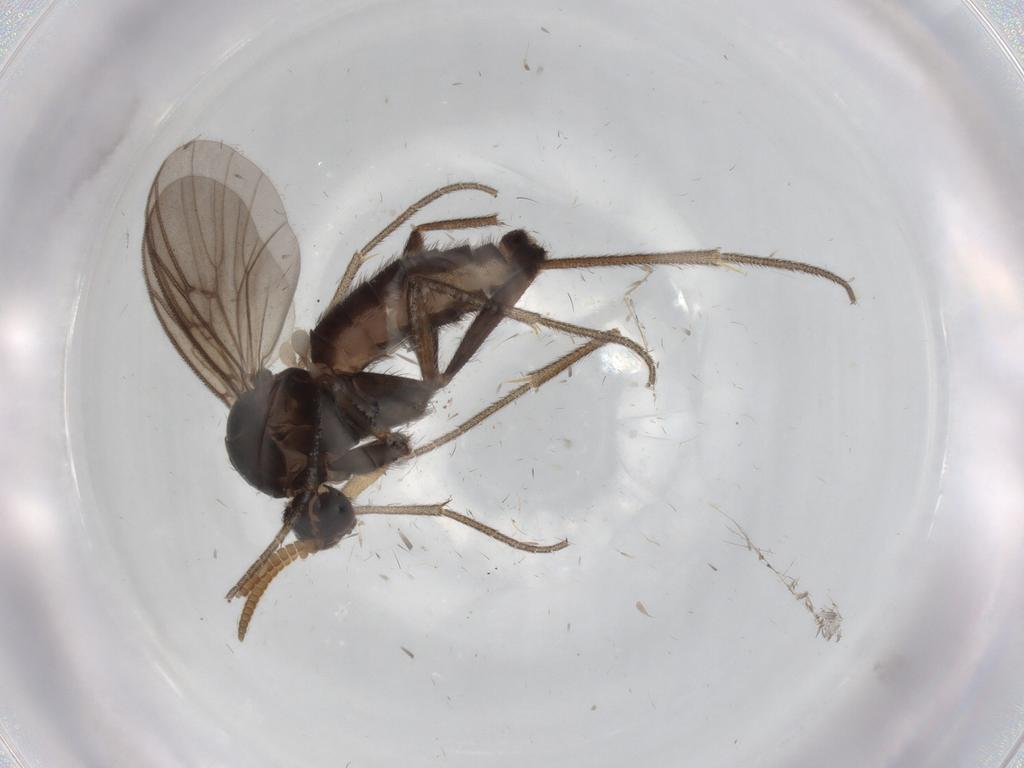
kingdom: Animalia
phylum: Arthropoda
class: Insecta
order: Diptera
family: Mycetophilidae
